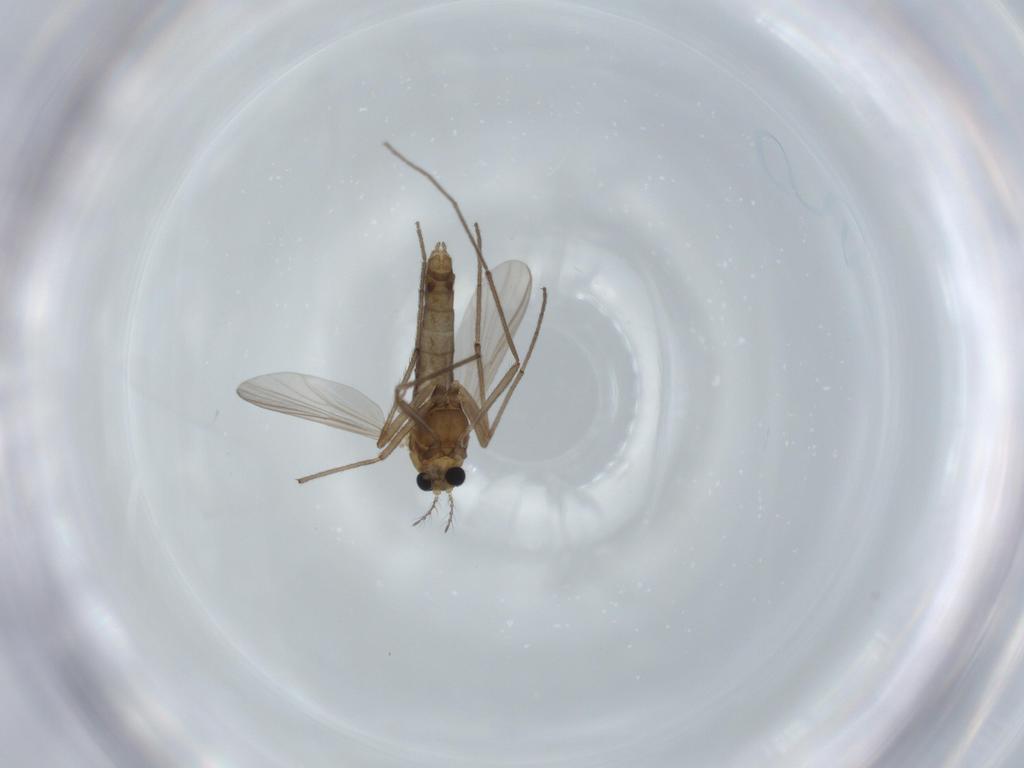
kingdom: Animalia
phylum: Arthropoda
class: Insecta
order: Diptera
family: Chironomidae
